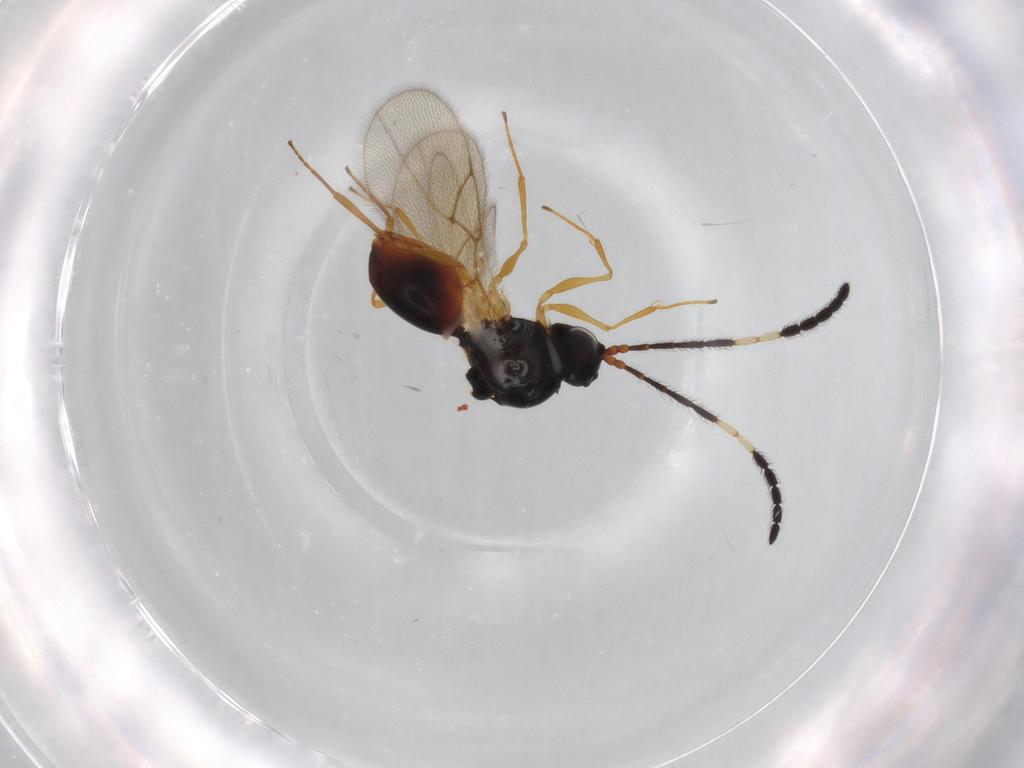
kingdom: Animalia
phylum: Arthropoda
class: Insecta
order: Hymenoptera
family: Figitidae
